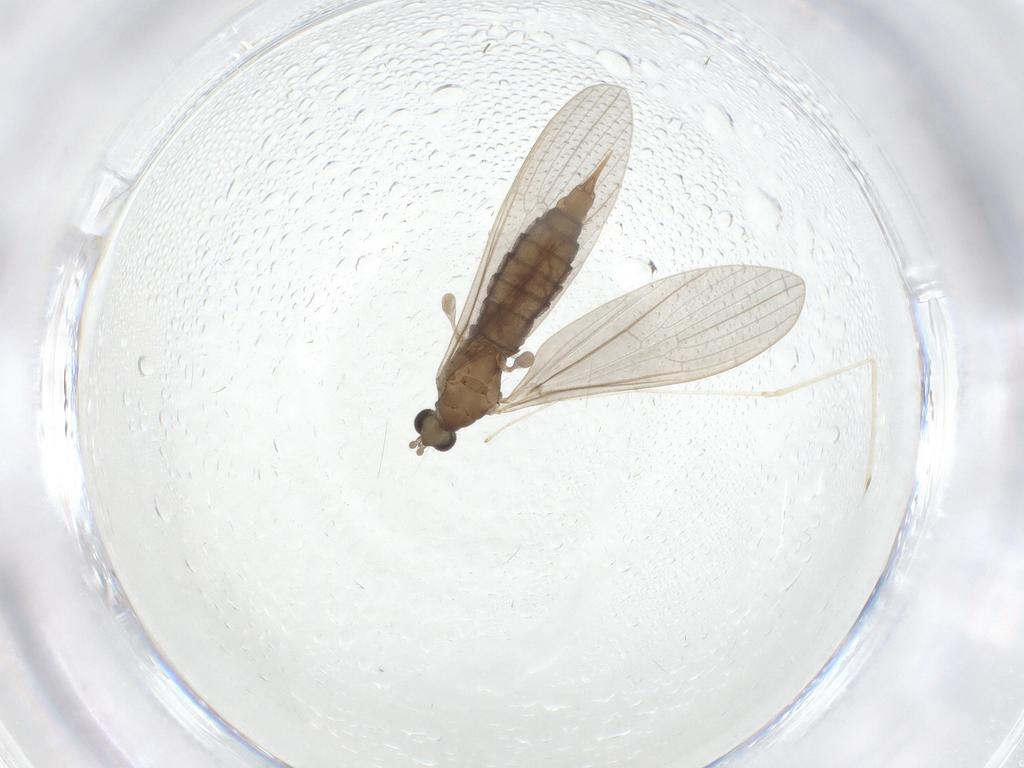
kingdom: Animalia
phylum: Arthropoda
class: Insecta
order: Diptera
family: Limoniidae
